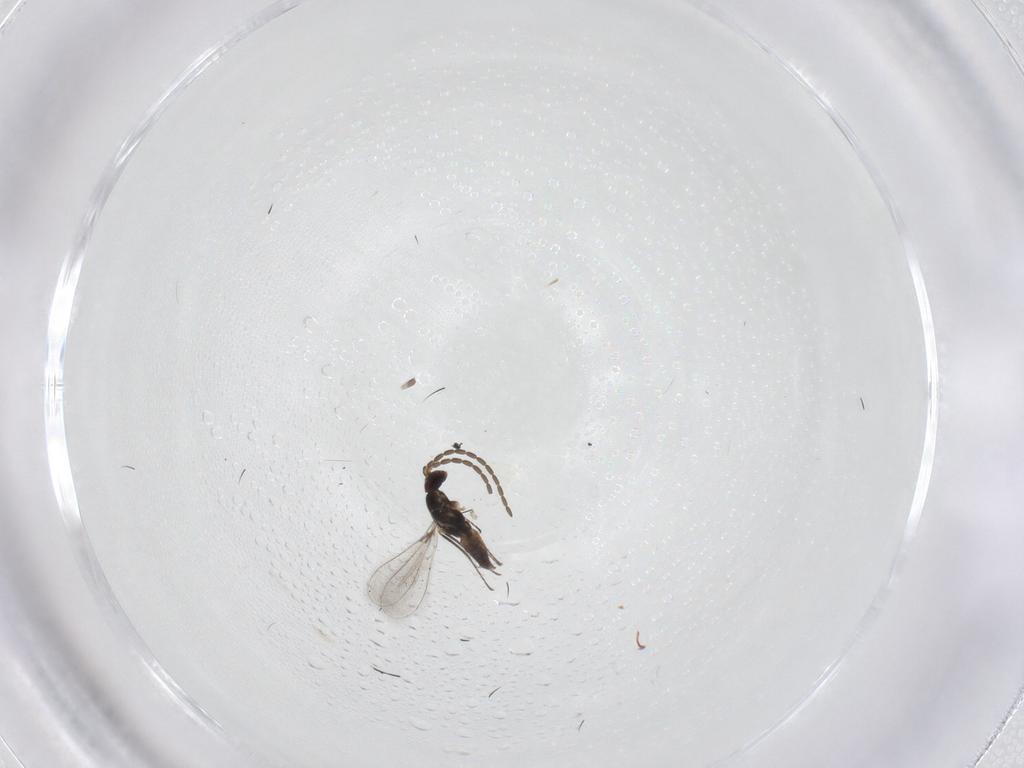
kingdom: Animalia
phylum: Arthropoda
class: Insecta
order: Hymenoptera
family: Mymaridae
